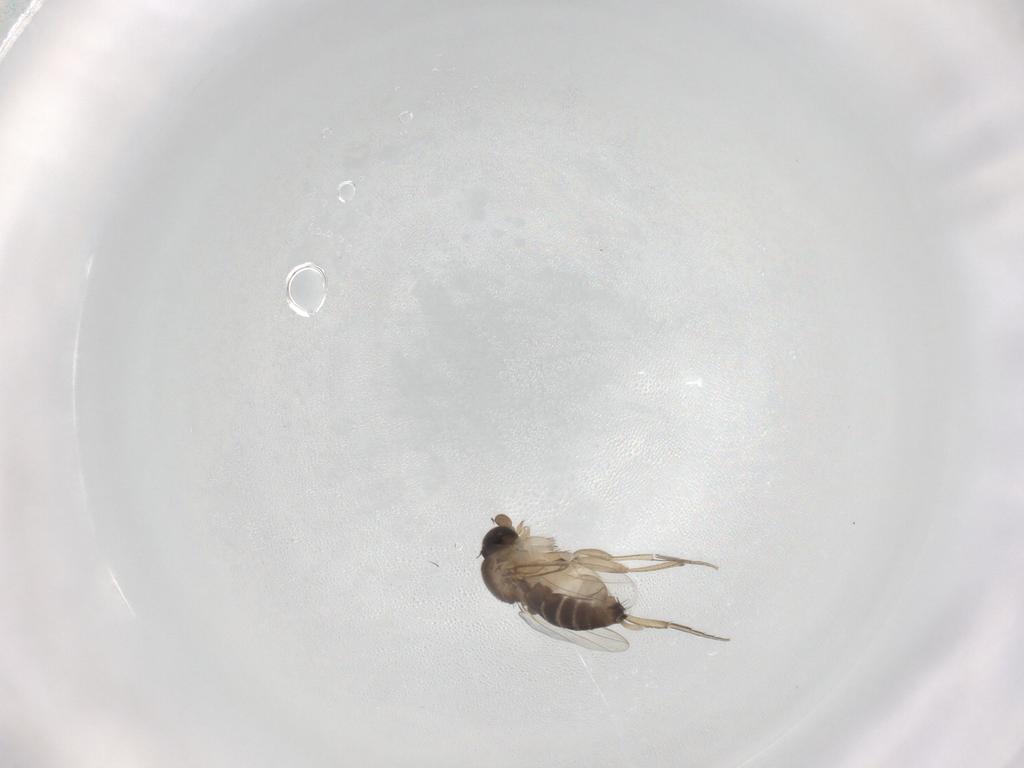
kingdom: Animalia
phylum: Arthropoda
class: Insecta
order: Diptera
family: Phoridae
